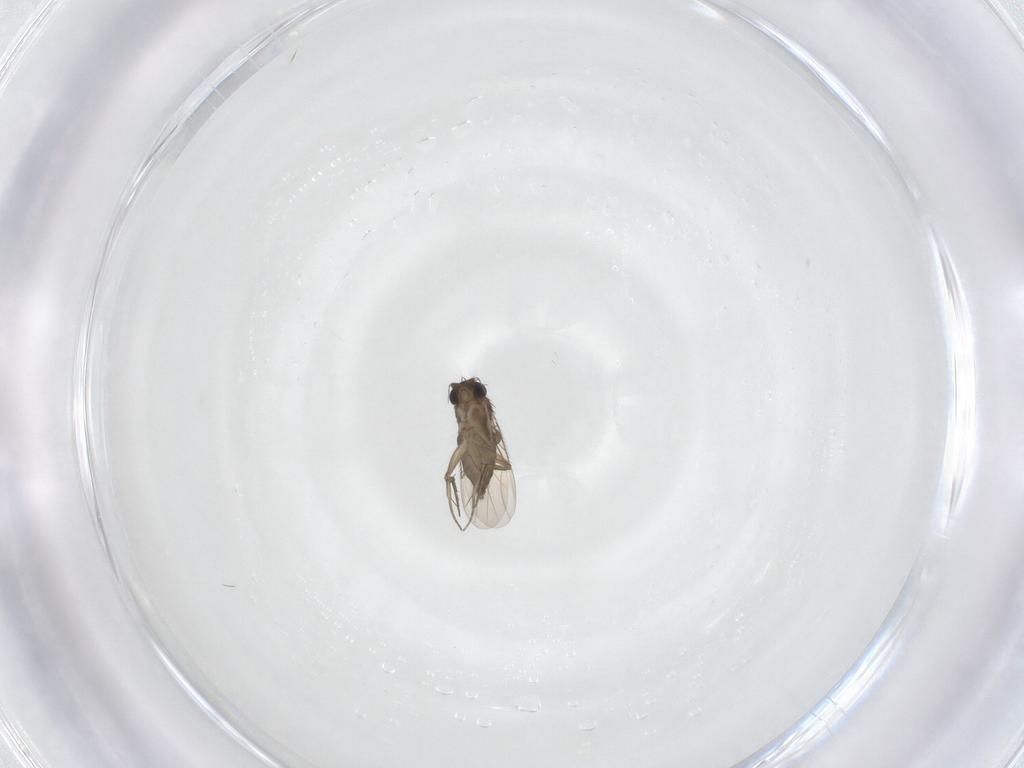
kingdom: Animalia
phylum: Arthropoda
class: Insecta
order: Diptera
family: Phoridae
